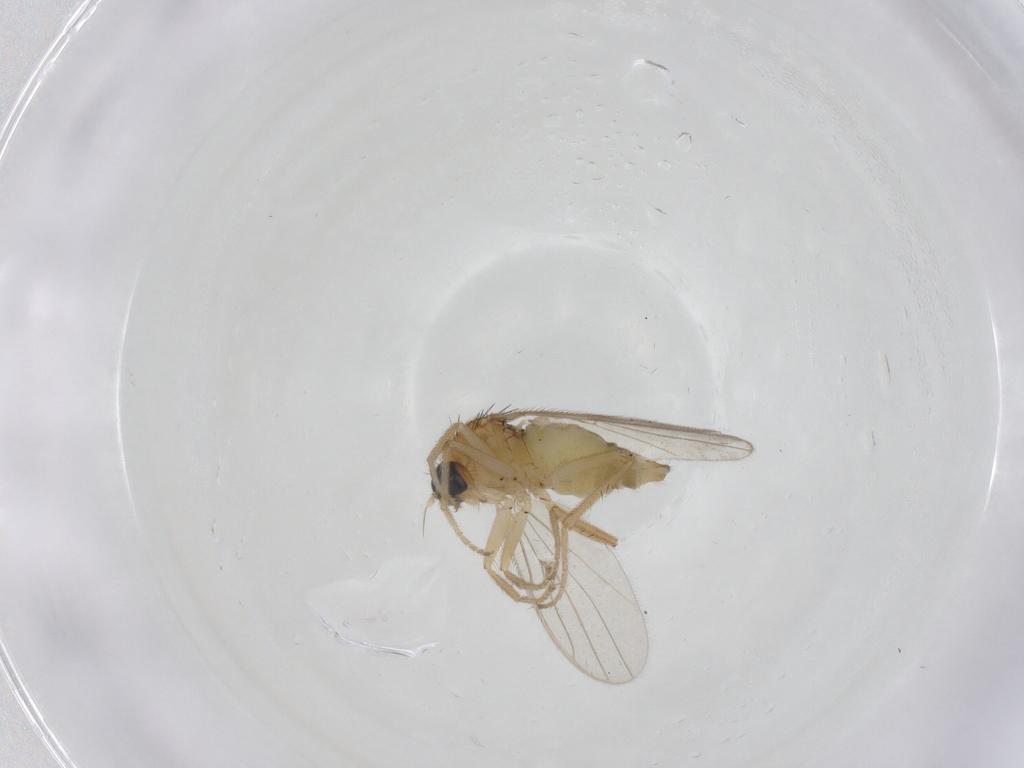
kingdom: Animalia
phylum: Arthropoda
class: Insecta
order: Diptera
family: Hybotidae
